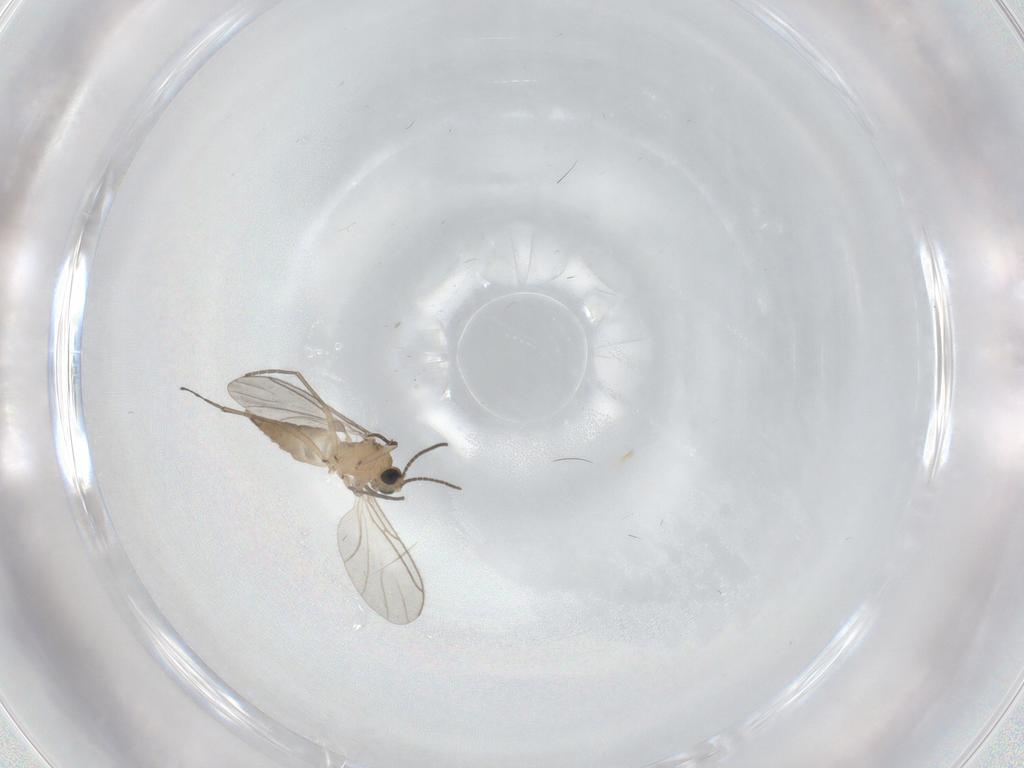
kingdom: Animalia
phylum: Arthropoda
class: Insecta
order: Diptera
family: Sciaridae
